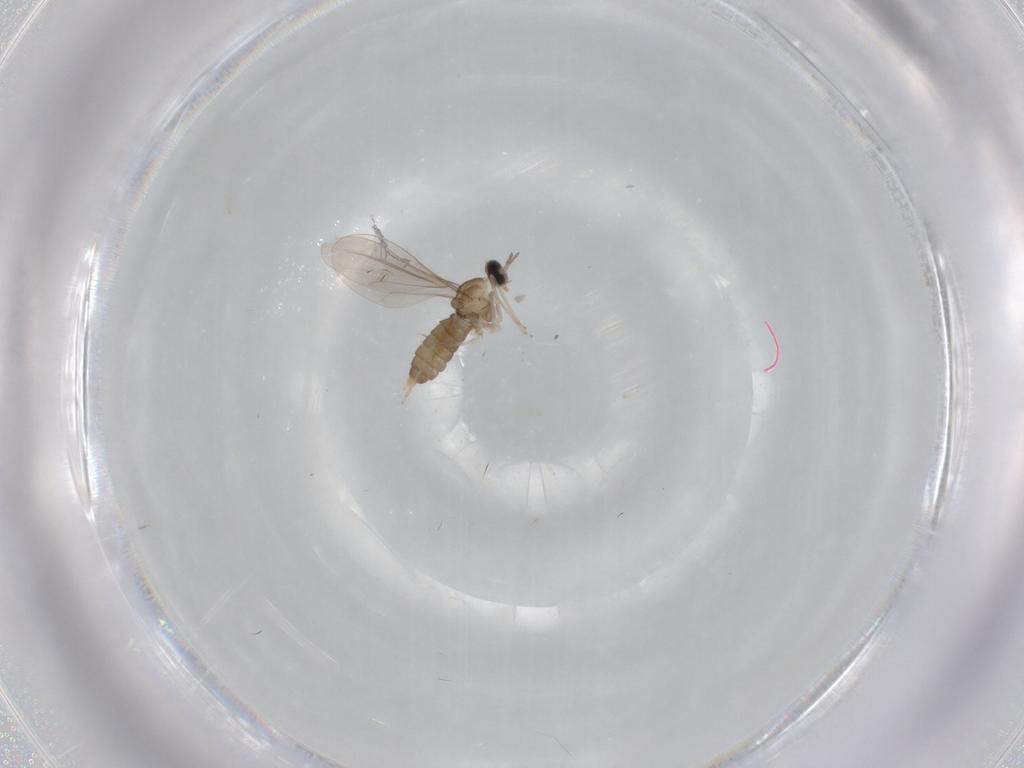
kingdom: Animalia
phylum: Arthropoda
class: Insecta
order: Diptera
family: Cecidomyiidae
